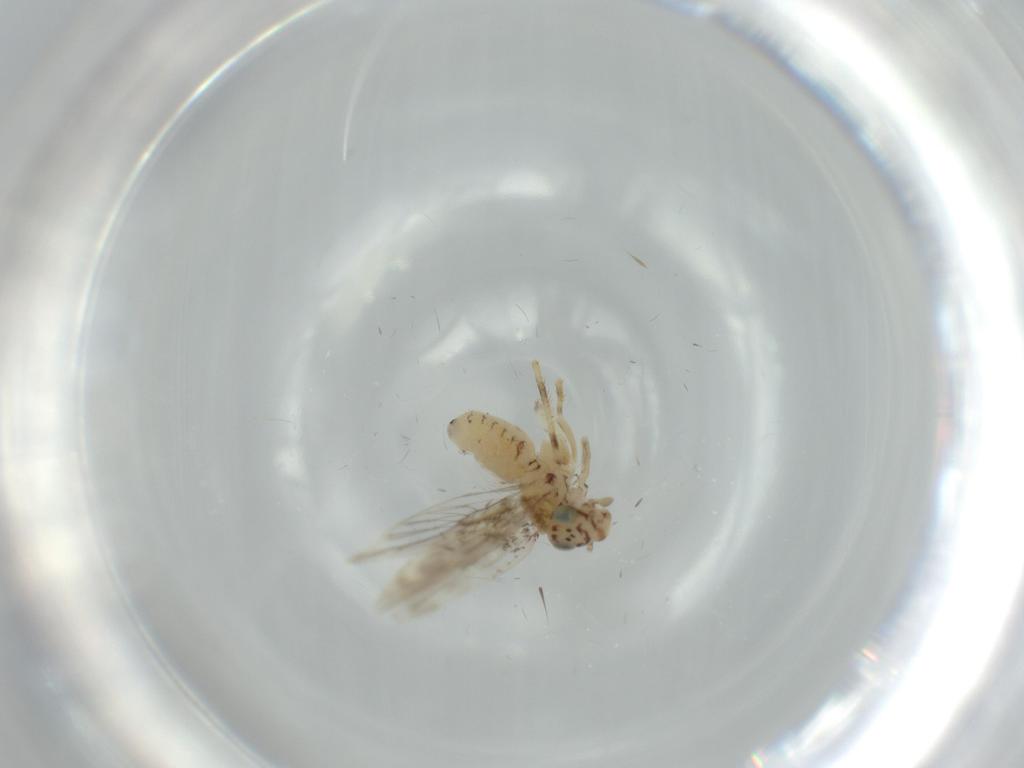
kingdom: Animalia
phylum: Arthropoda
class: Insecta
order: Psocodea
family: Lepidopsocidae
